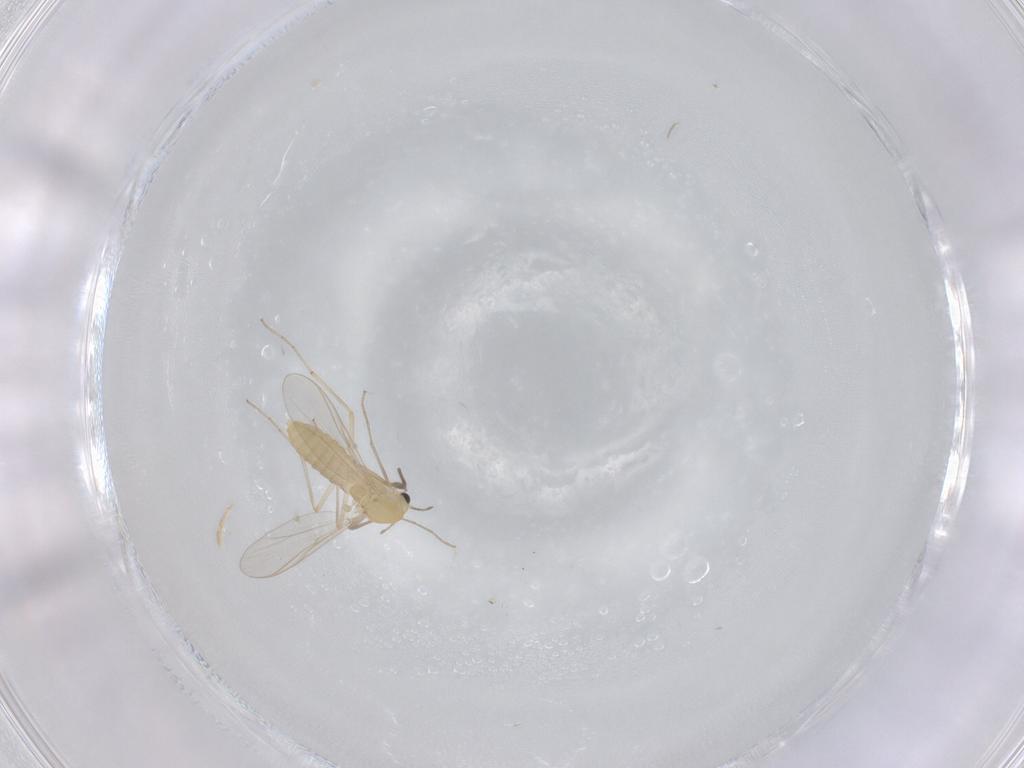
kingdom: Animalia
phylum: Arthropoda
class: Insecta
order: Diptera
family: Chironomidae
